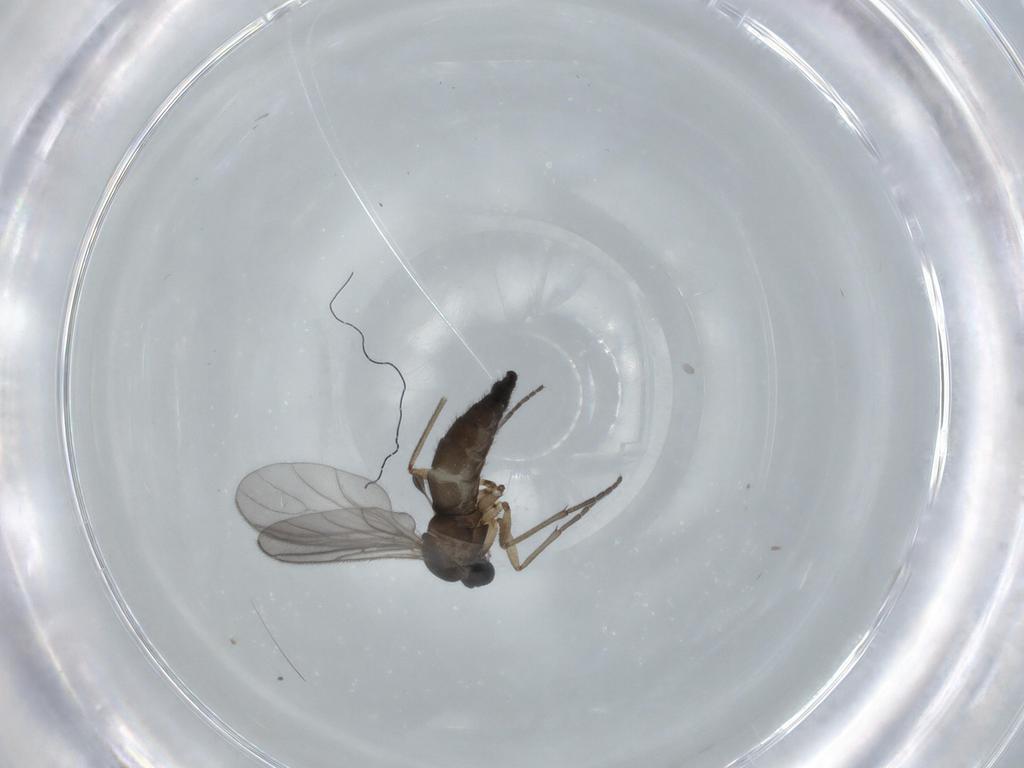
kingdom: Animalia
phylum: Arthropoda
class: Insecta
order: Diptera
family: Sciaridae
